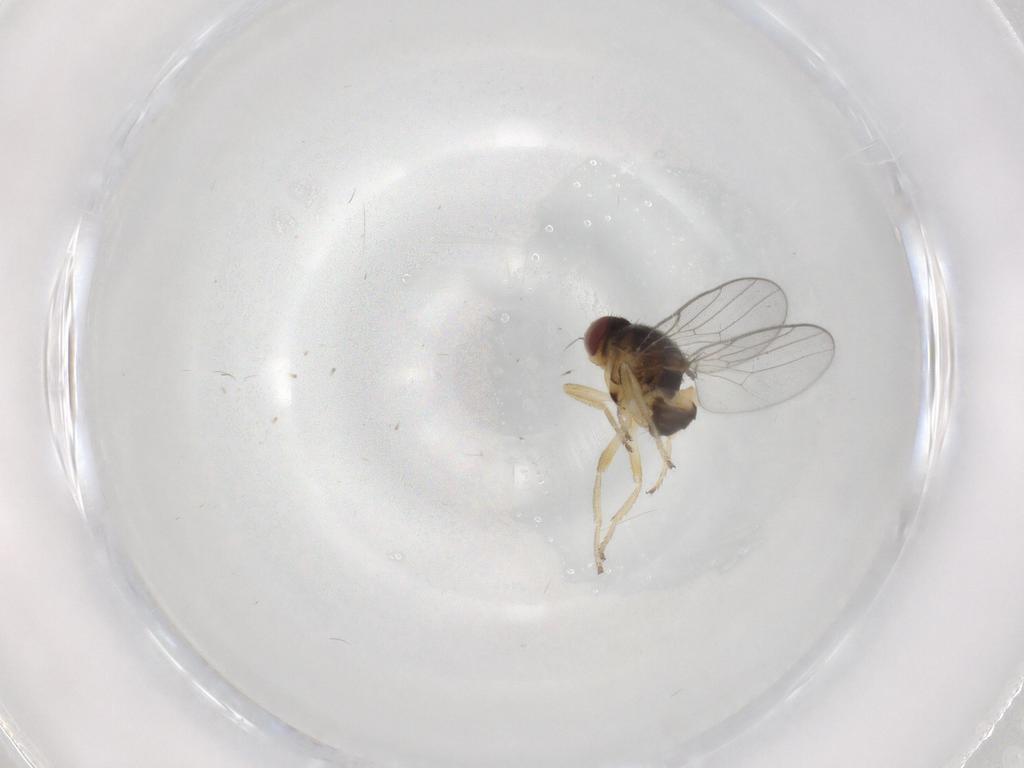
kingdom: Animalia
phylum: Arthropoda
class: Insecta
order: Diptera
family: Chloropidae
